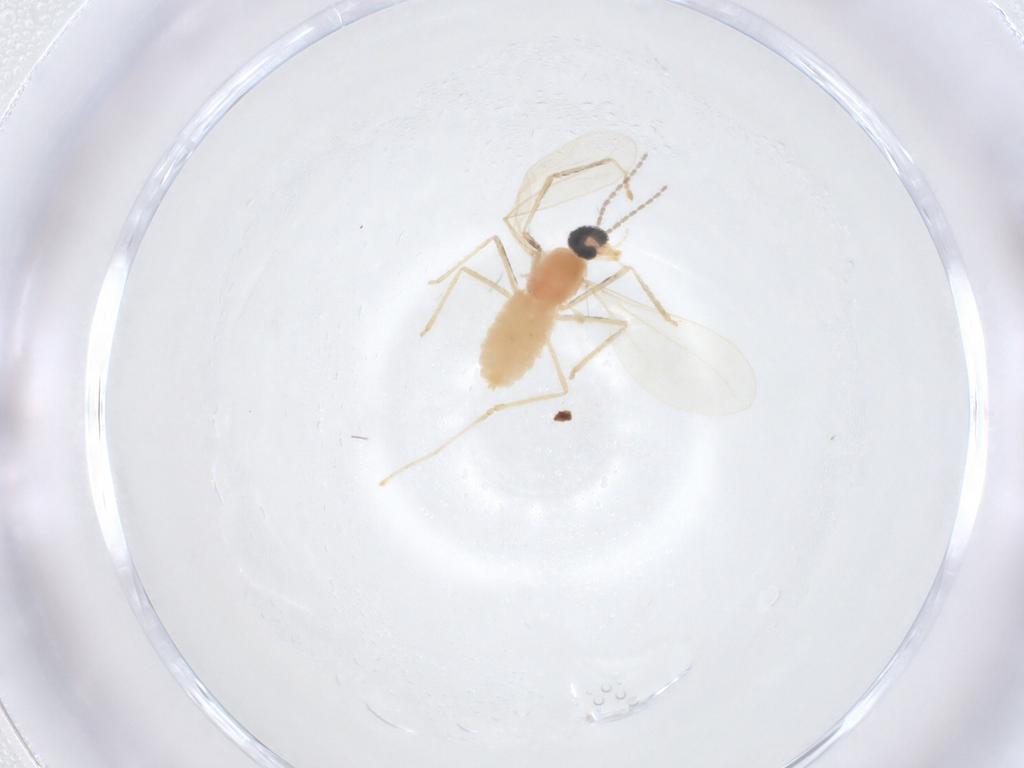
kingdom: Animalia
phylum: Arthropoda
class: Insecta
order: Diptera
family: Cecidomyiidae
